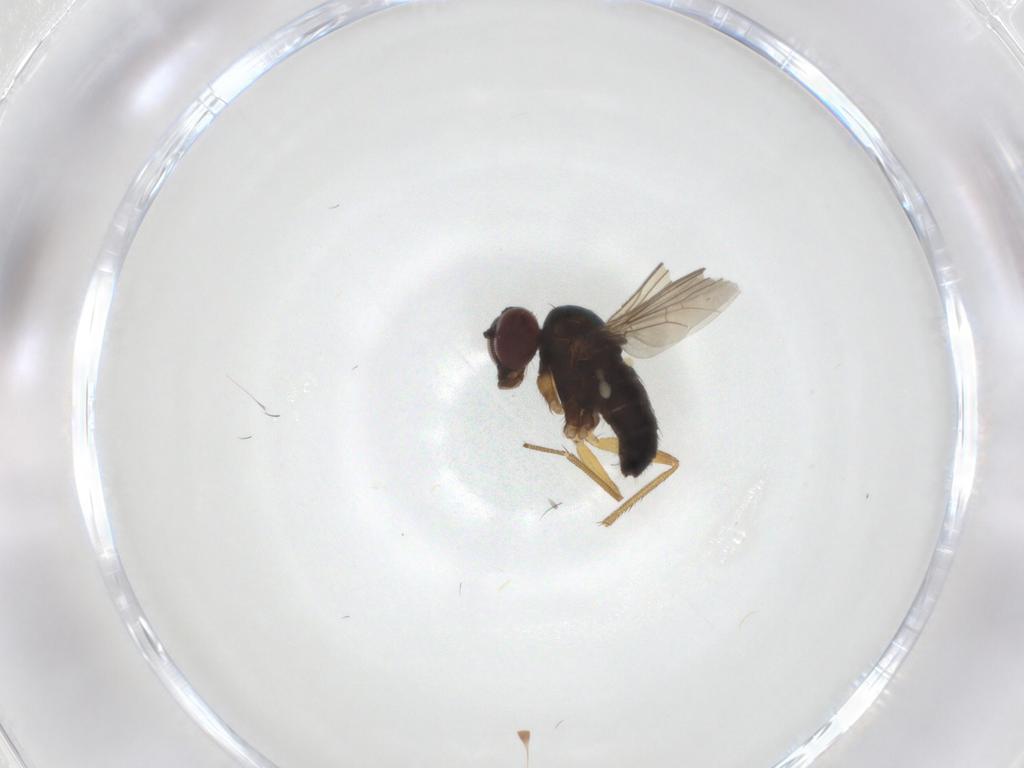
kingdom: Animalia
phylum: Arthropoda
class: Insecta
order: Diptera
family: Dolichopodidae
